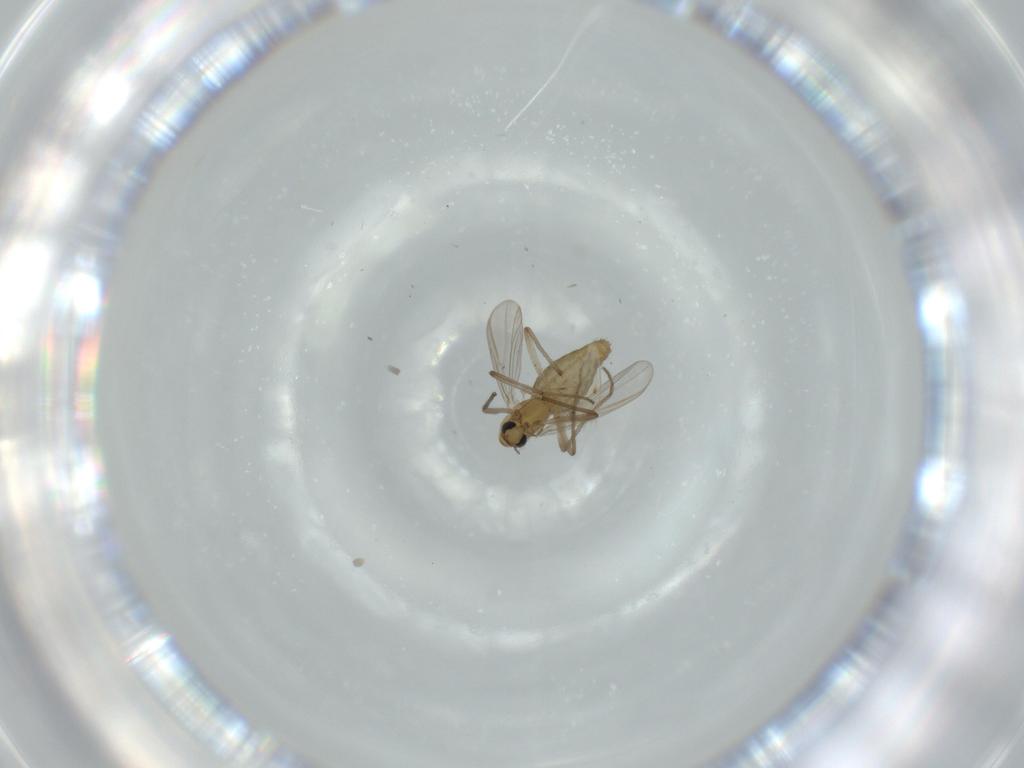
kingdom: Animalia
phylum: Arthropoda
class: Insecta
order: Diptera
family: Chironomidae
